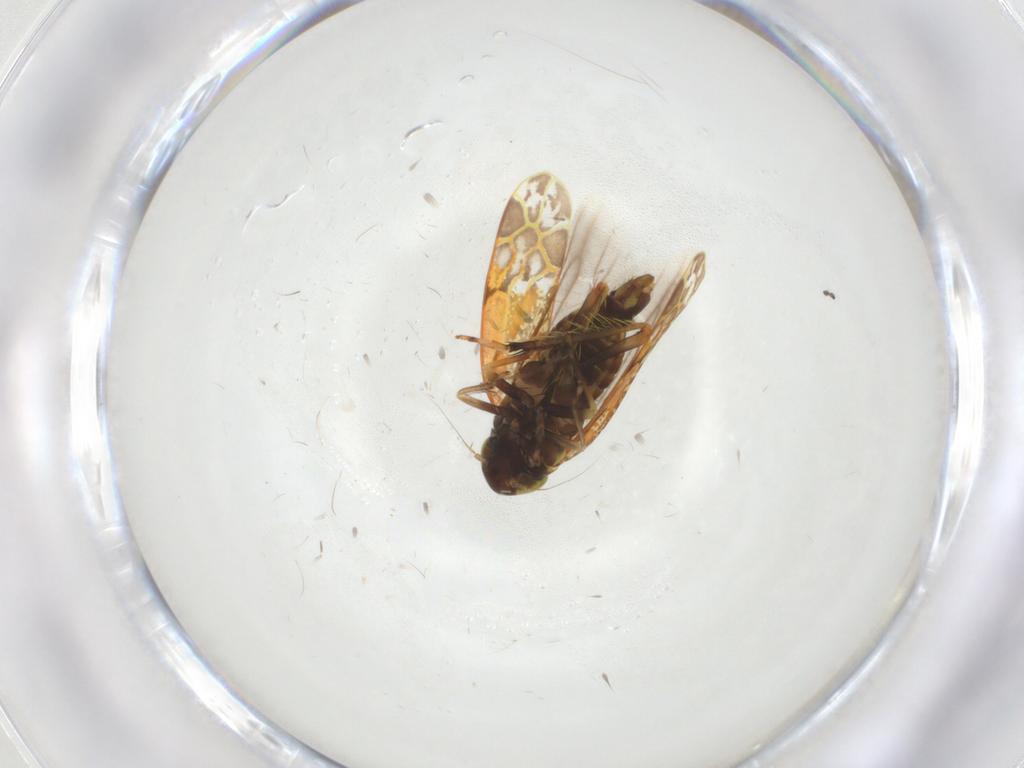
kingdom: Animalia
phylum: Arthropoda
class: Insecta
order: Hemiptera
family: Cicadellidae
